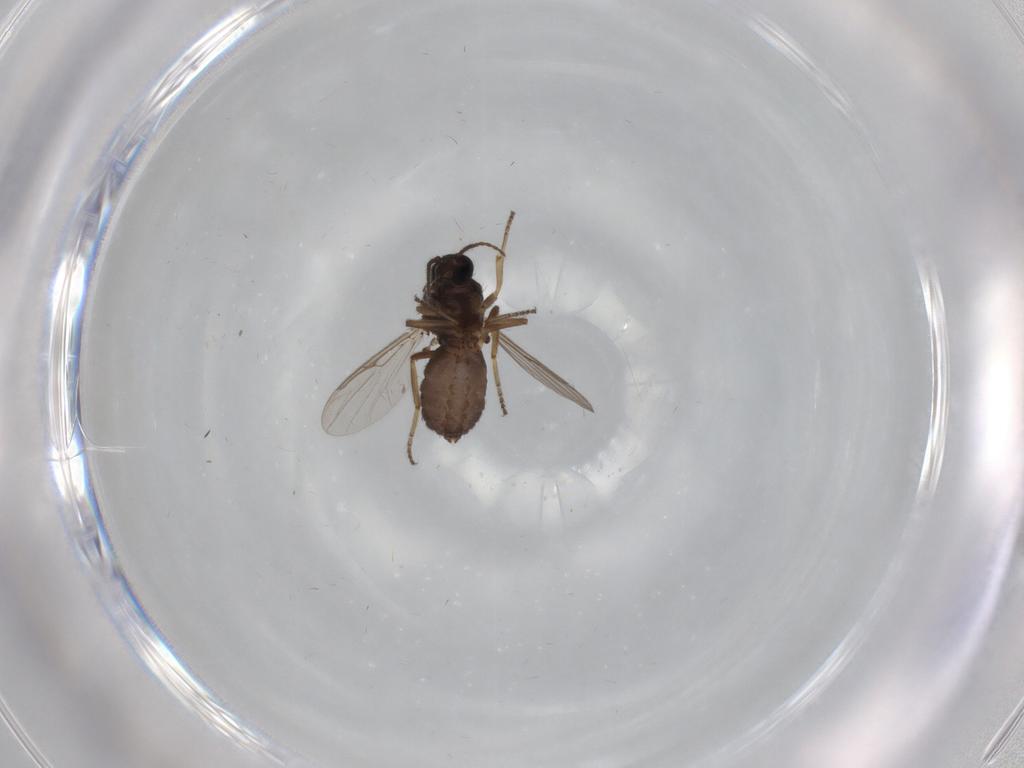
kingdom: Animalia
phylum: Arthropoda
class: Insecta
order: Diptera
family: Ceratopogonidae
